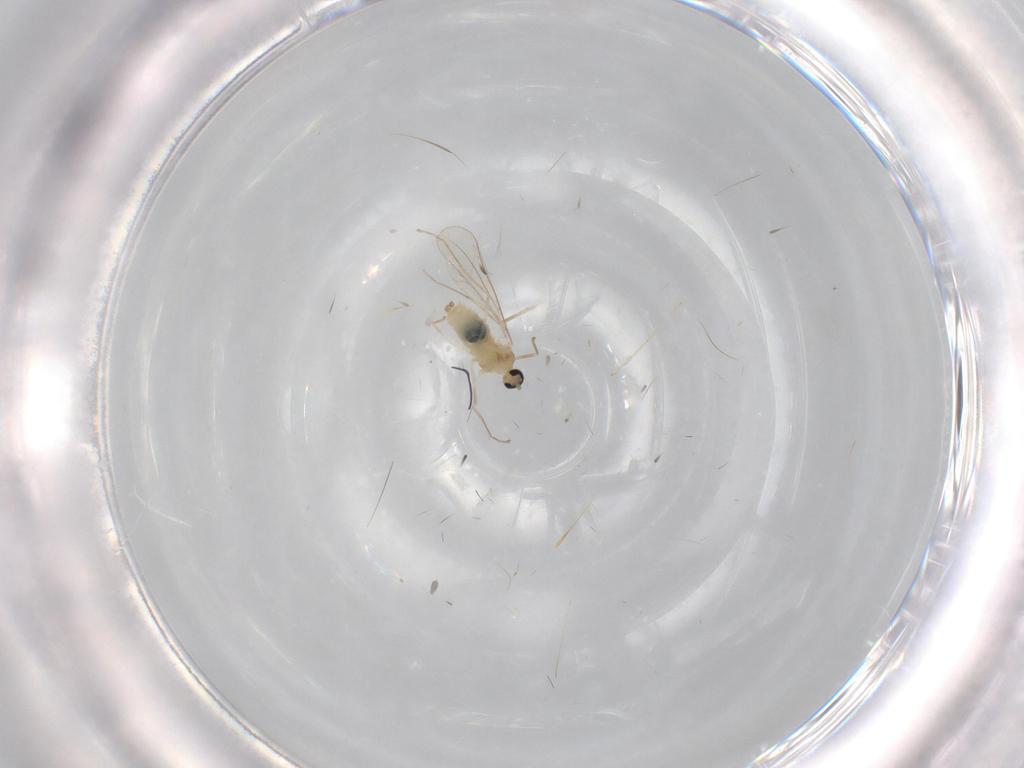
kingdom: Animalia
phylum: Arthropoda
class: Insecta
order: Diptera
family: Cecidomyiidae
